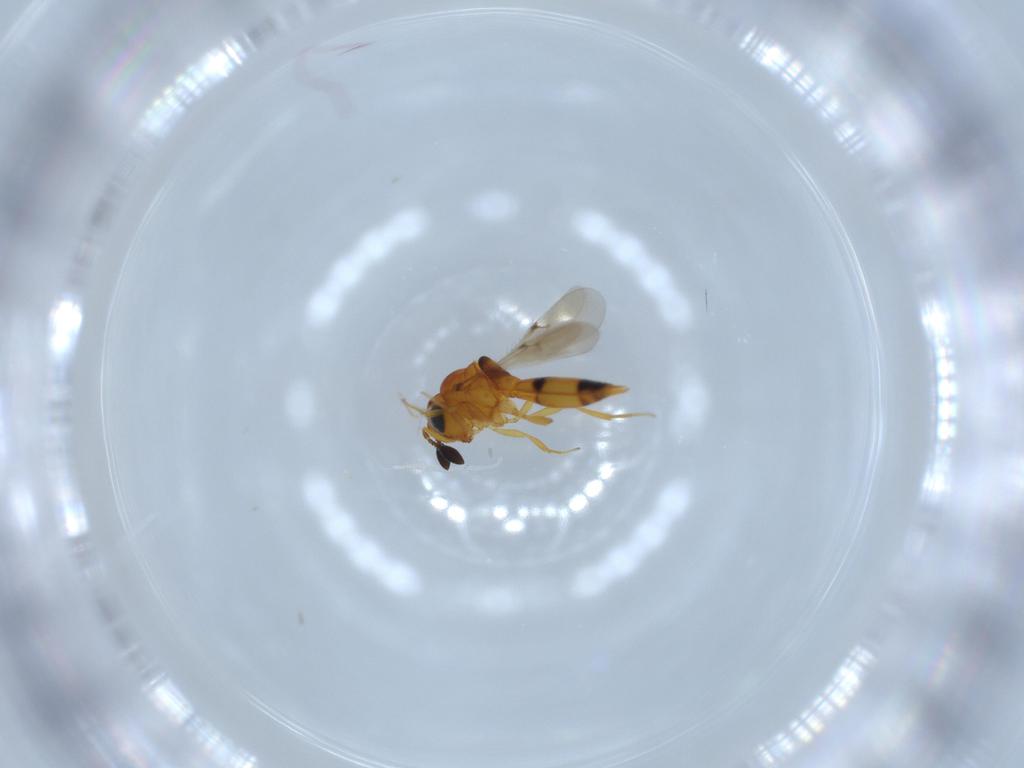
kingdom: Animalia
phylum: Arthropoda
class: Insecta
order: Hymenoptera
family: Scelionidae
